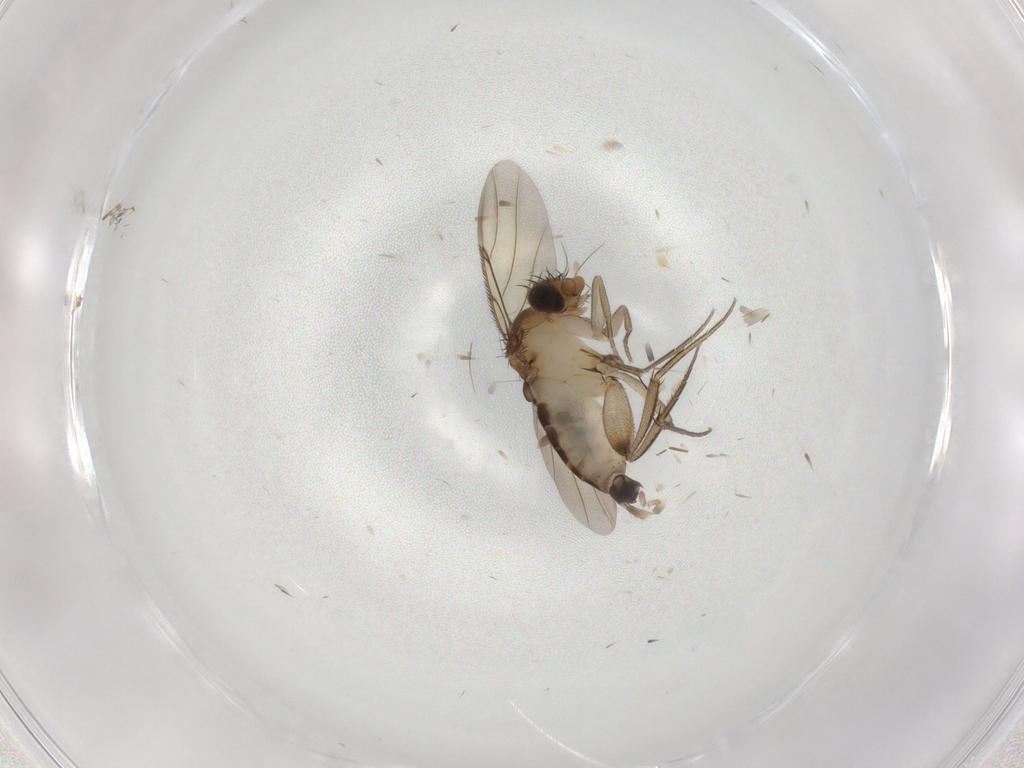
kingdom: Animalia
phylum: Arthropoda
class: Insecta
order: Diptera
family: Phoridae
